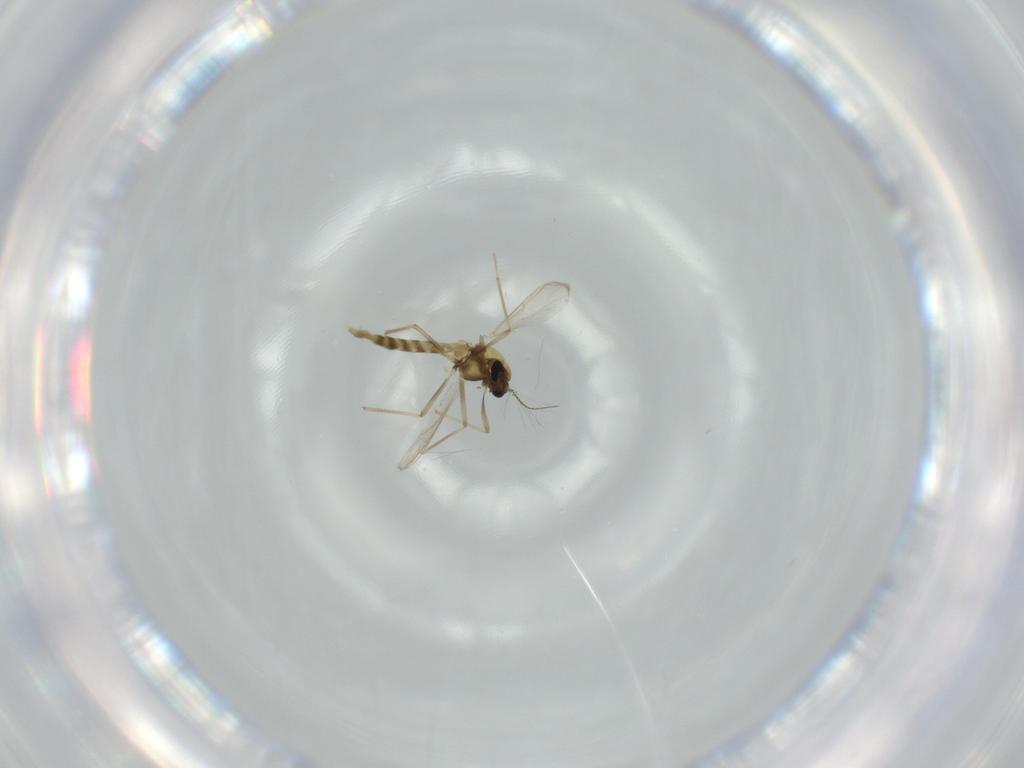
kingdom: Animalia
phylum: Arthropoda
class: Insecta
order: Diptera
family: Chironomidae
